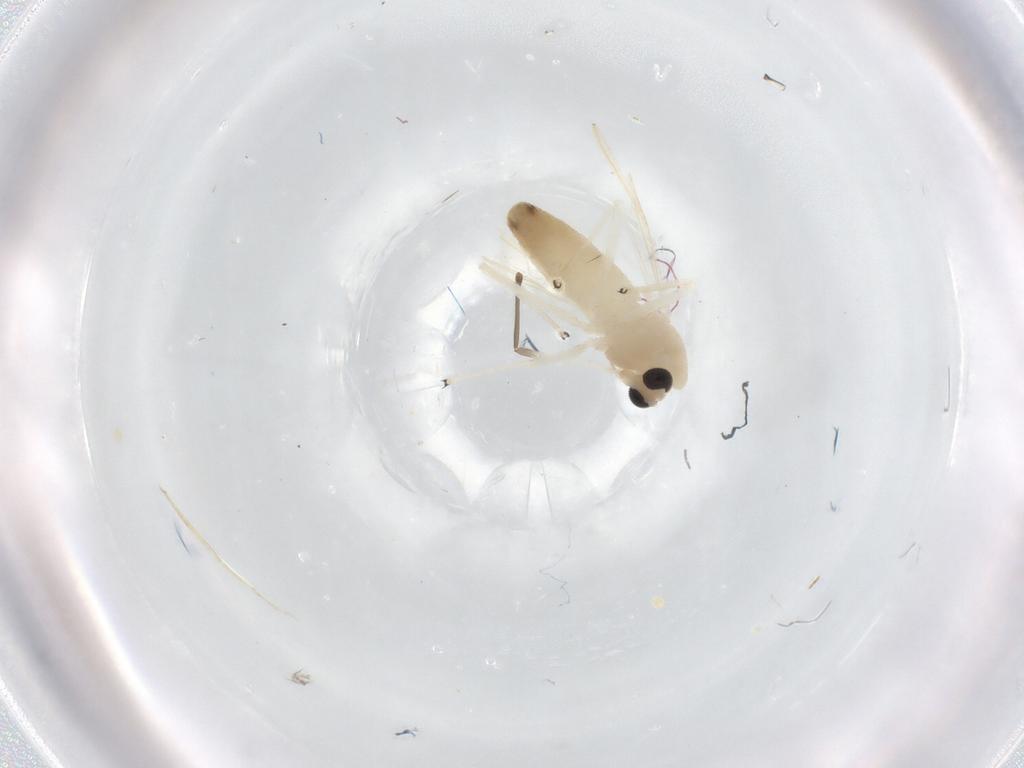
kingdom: Animalia
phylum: Arthropoda
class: Insecta
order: Diptera
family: Chironomidae
